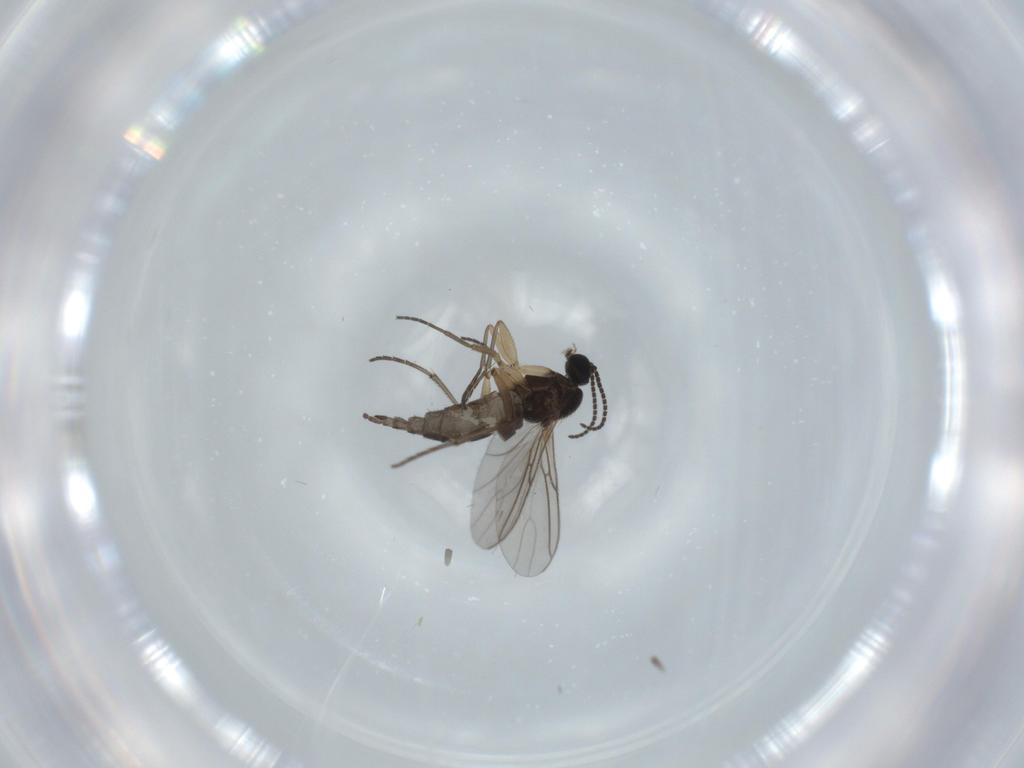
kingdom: Animalia
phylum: Arthropoda
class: Insecta
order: Diptera
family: Sciaridae
